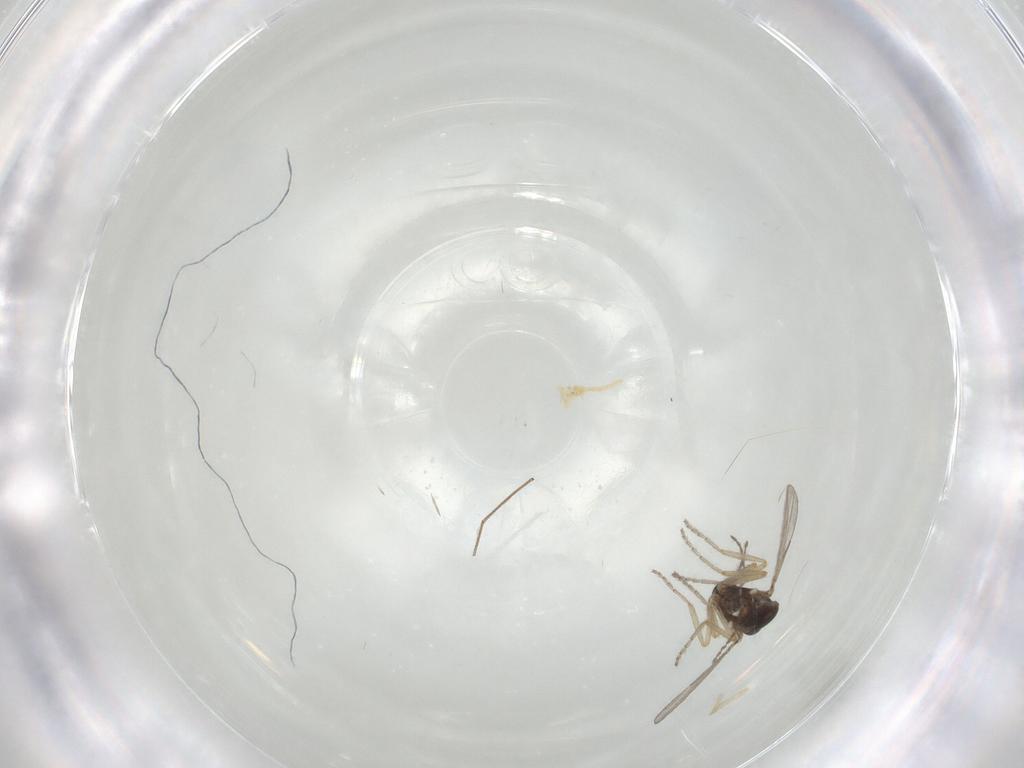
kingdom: Animalia
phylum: Arthropoda
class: Insecta
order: Diptera
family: Ceratopogonidae
